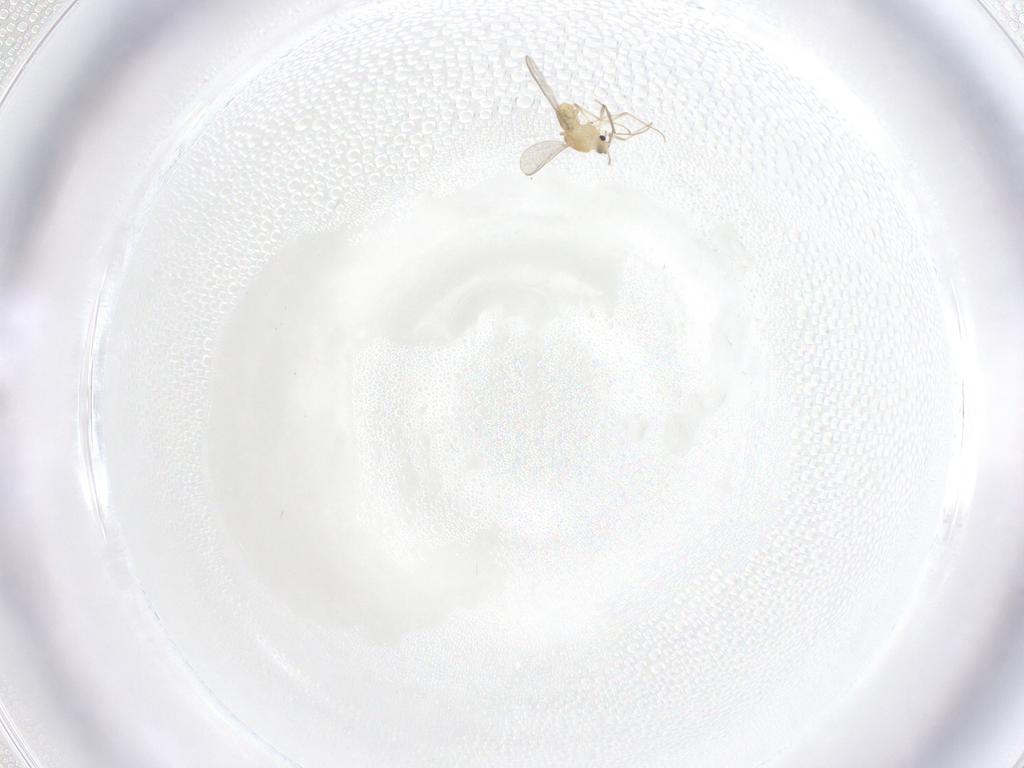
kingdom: Animalia
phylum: Arthropoda
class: Insecta
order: Diptera
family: Chironomidae
